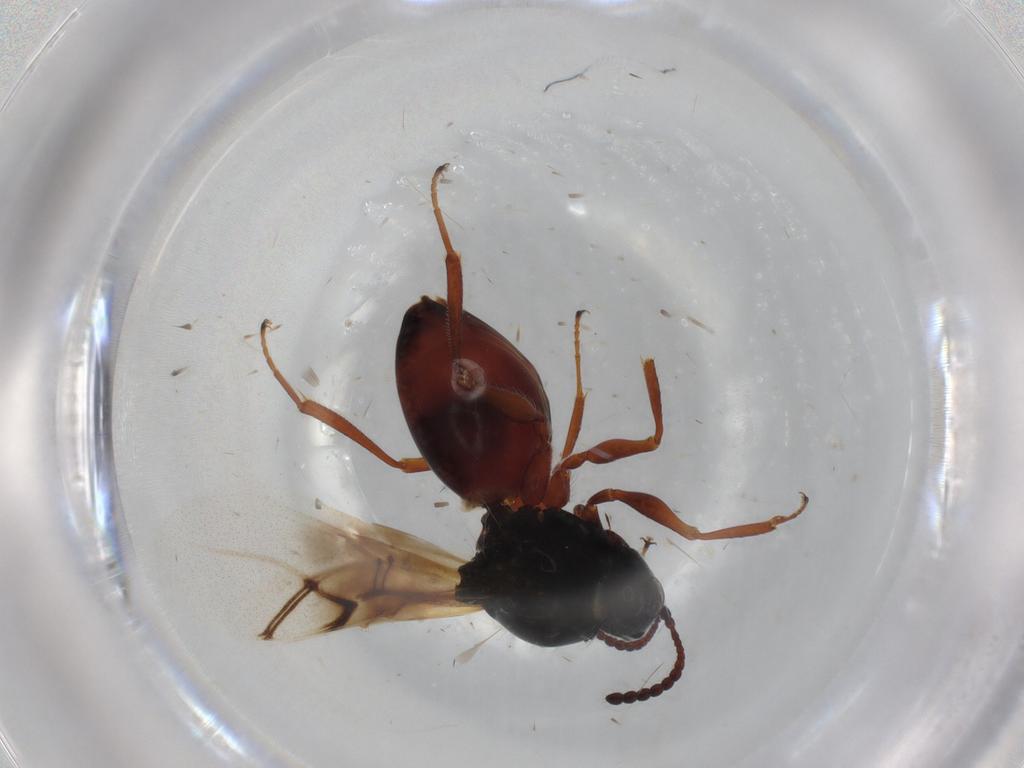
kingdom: Animalia
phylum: Arthropoda
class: Insecta
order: Hymenoptera
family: Figitidae
